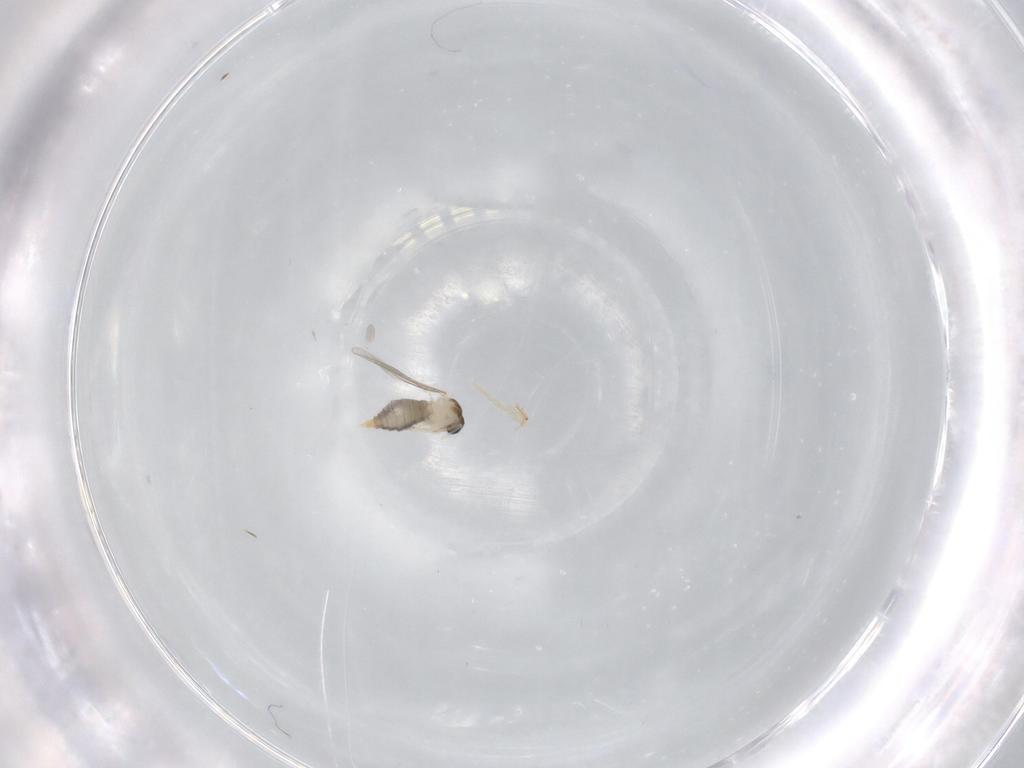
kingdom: Animalia
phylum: Arthropoda
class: Insecta
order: Diptera
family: Cecidomyiidae
